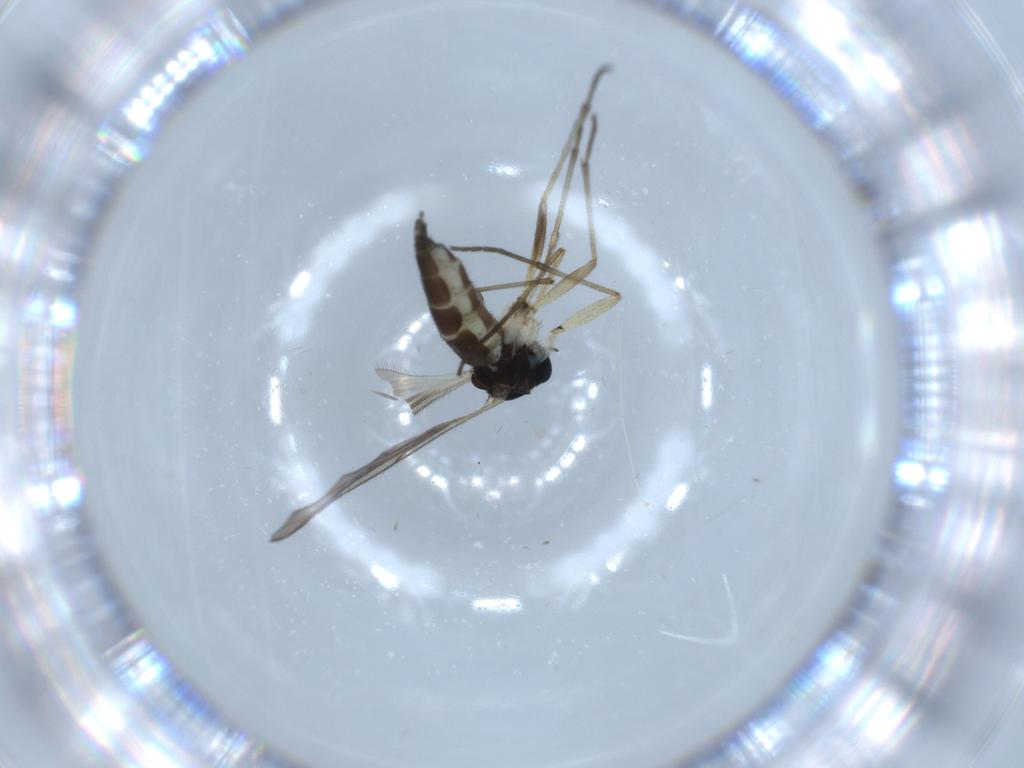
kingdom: Animalia
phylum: Arthropoda
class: Insecta
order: Diptera
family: Sciaridae
